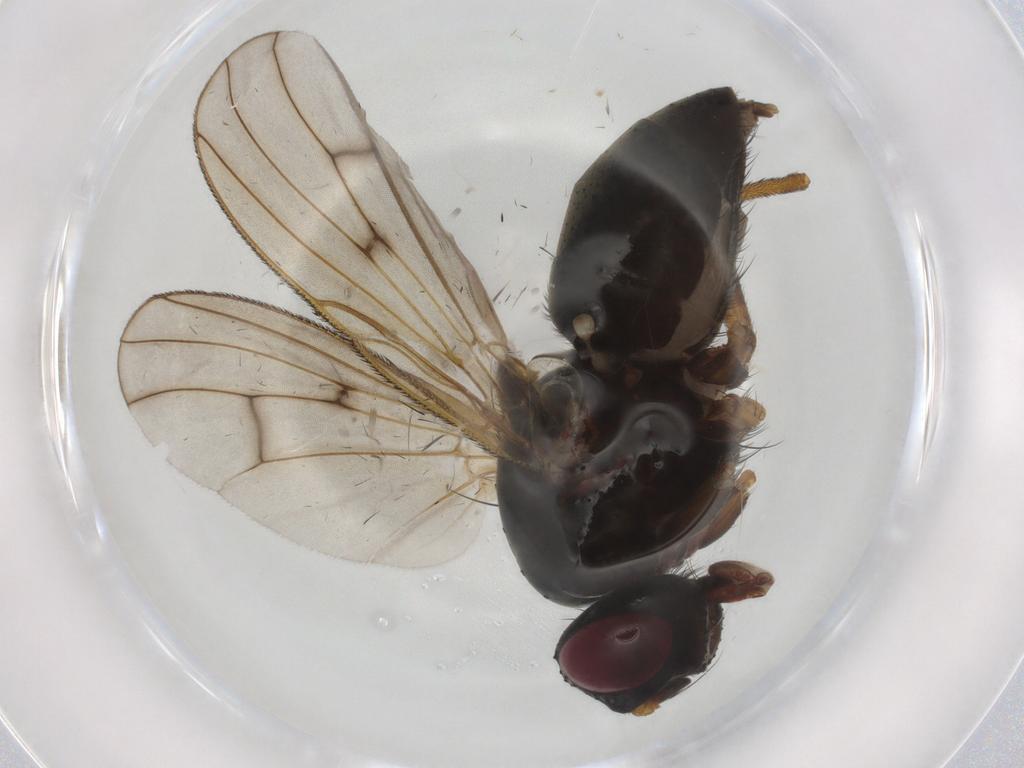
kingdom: Animalia
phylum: Arthropoda
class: Insecta
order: Diptera
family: Muscidae
